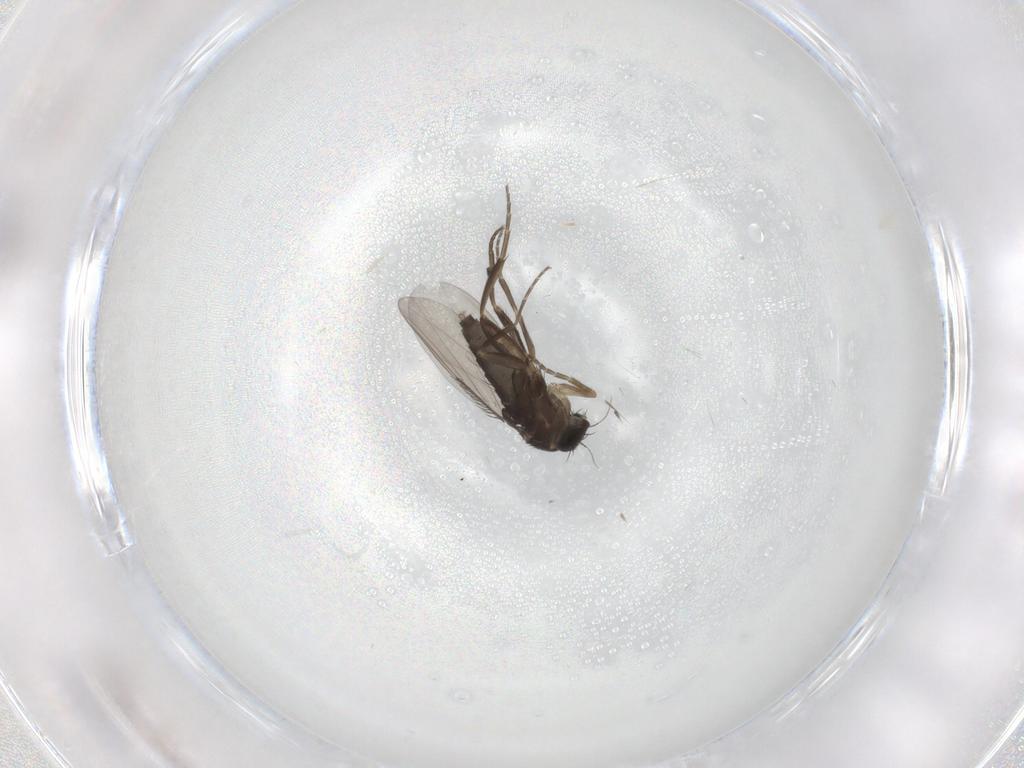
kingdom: Animalia
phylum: Arthropoda
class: Insecta
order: Diptera
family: Phoridae
